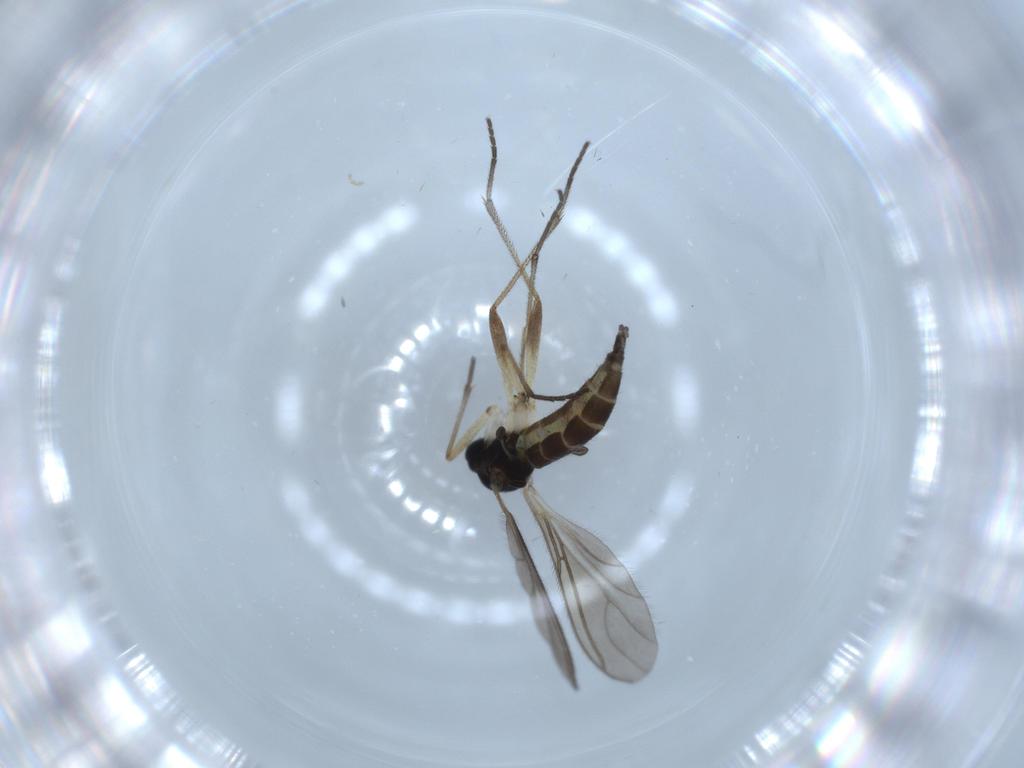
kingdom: Animalia
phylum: Arthropoda
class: Insecta
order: Diptera
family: Sciaridae
